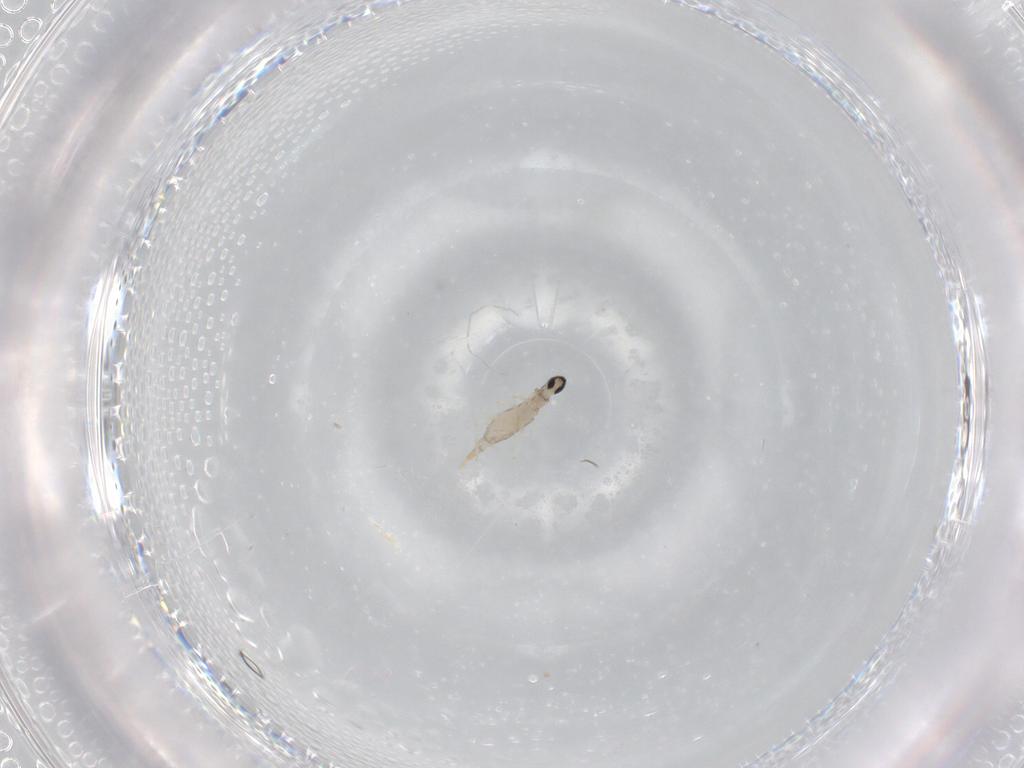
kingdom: Animalia
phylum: Arthropoda
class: Insecta
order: Diptera
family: Cecidomyiidae
